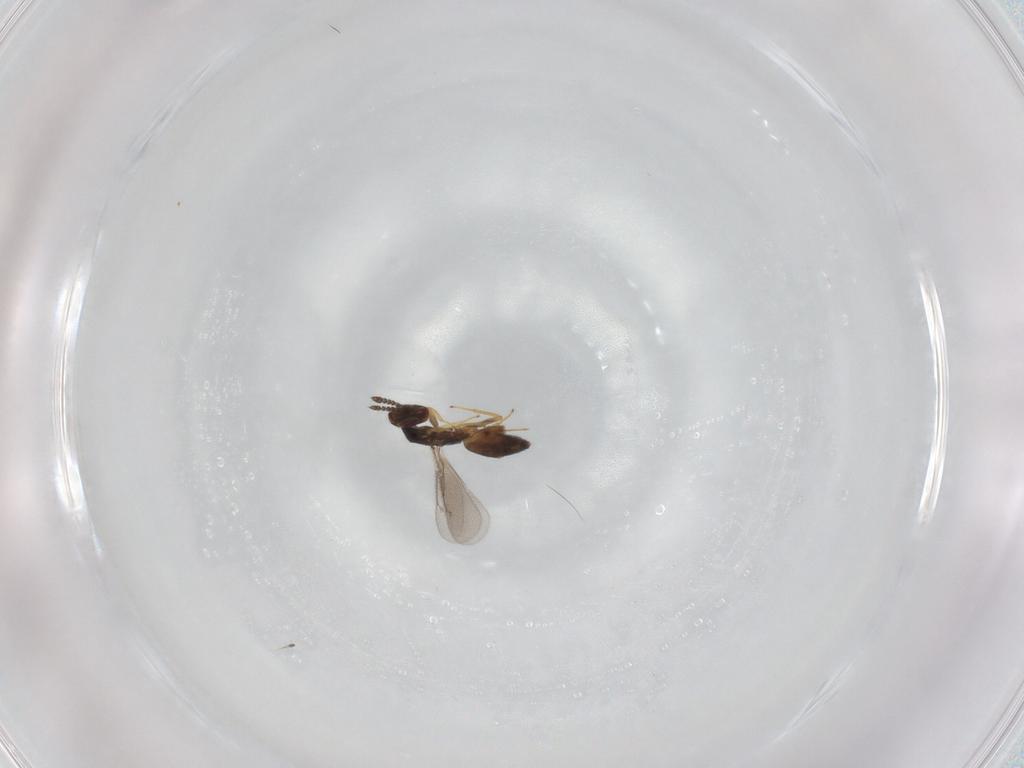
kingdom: Animalia
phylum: Arthropoda
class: Insecta
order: Hymenoptera
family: Eulophidae
